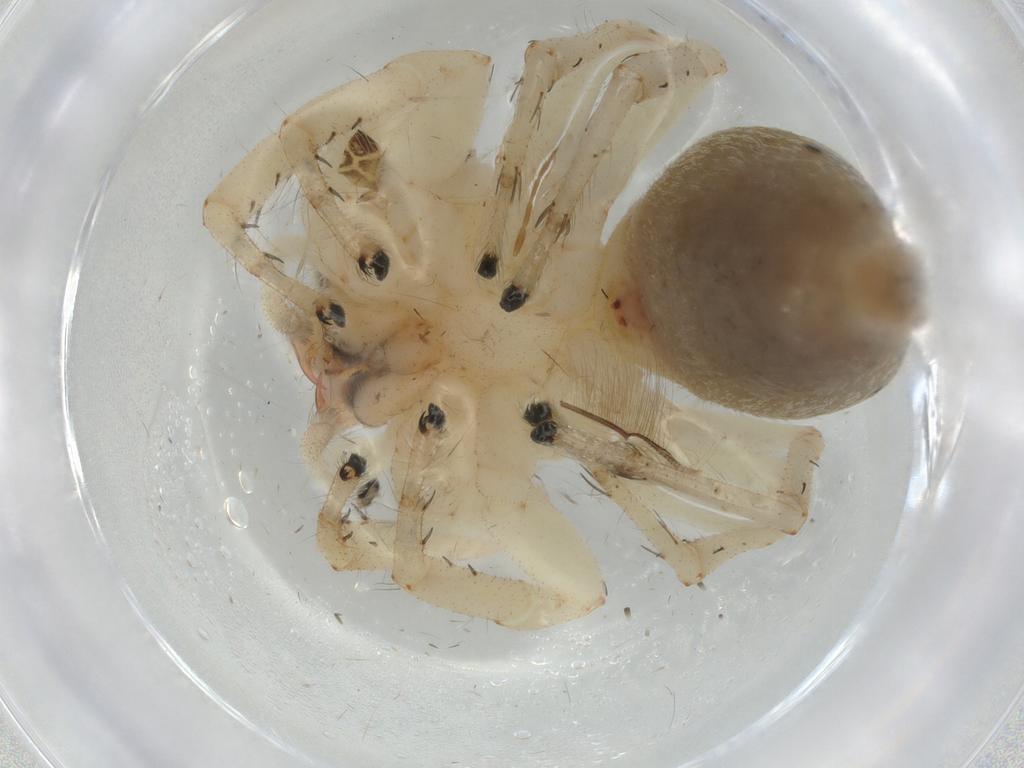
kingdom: Animalia
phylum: Arthropoda
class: Arachnida
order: Araneae
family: Salticidae
